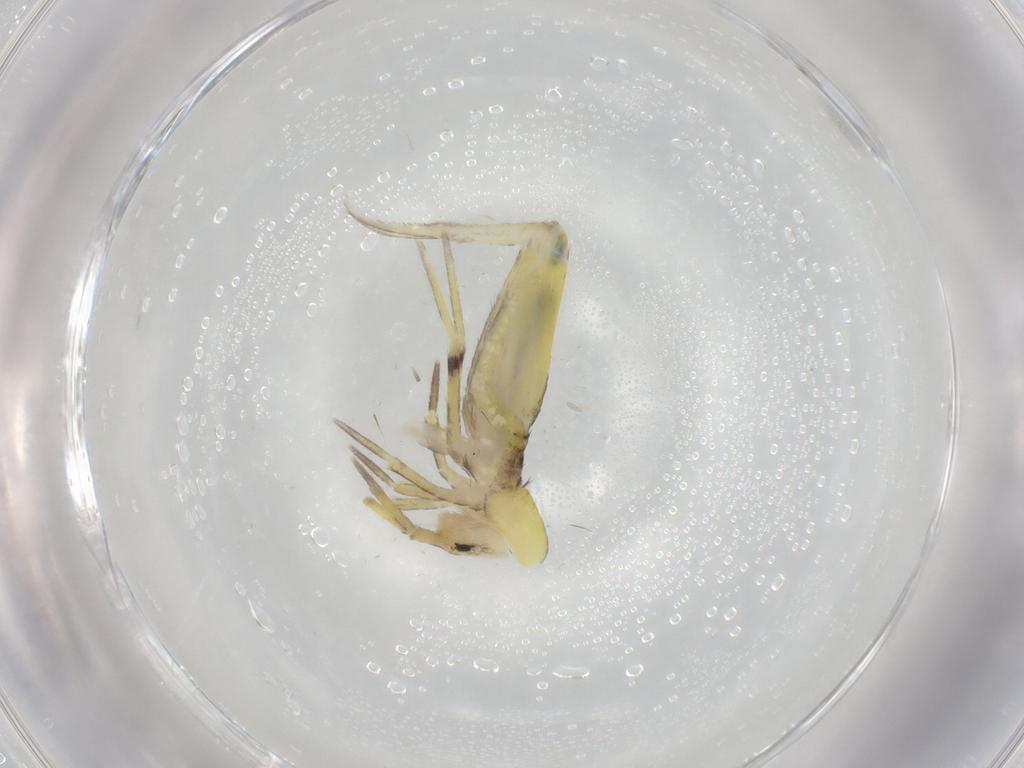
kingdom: Animalia
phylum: Arthropoda
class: Collembola
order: Entomobryomorpha
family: Entomobryidae
